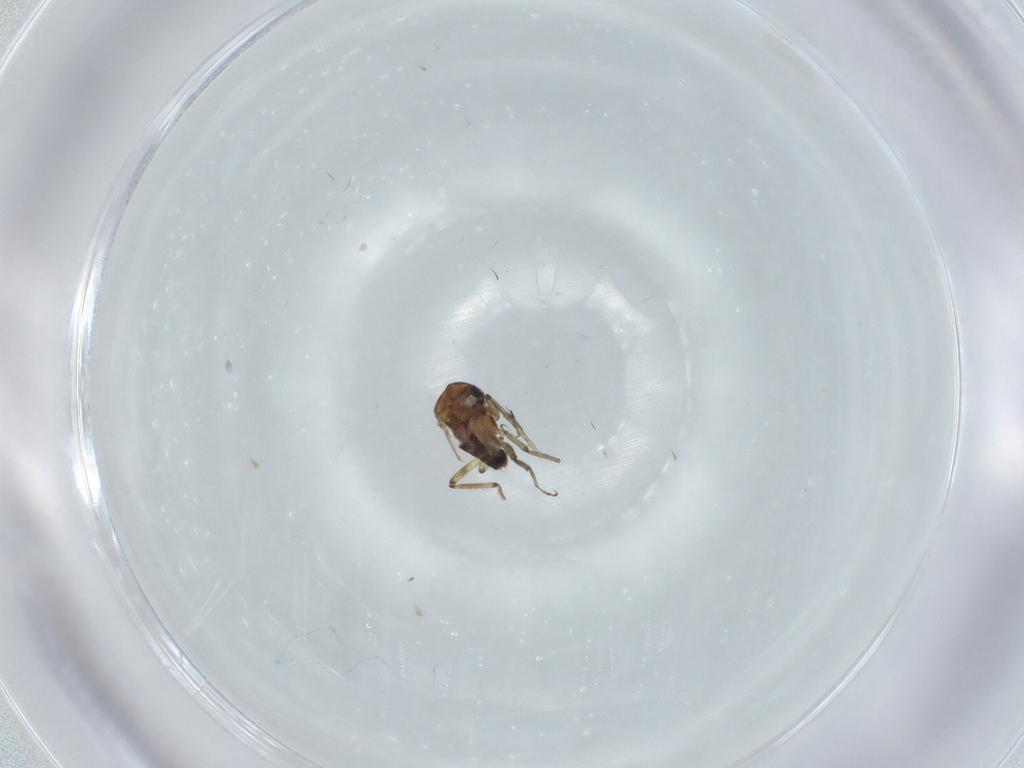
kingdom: Animalia
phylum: Arthropoda
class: Insecta
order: Diptera
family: Ceratopogonidae
